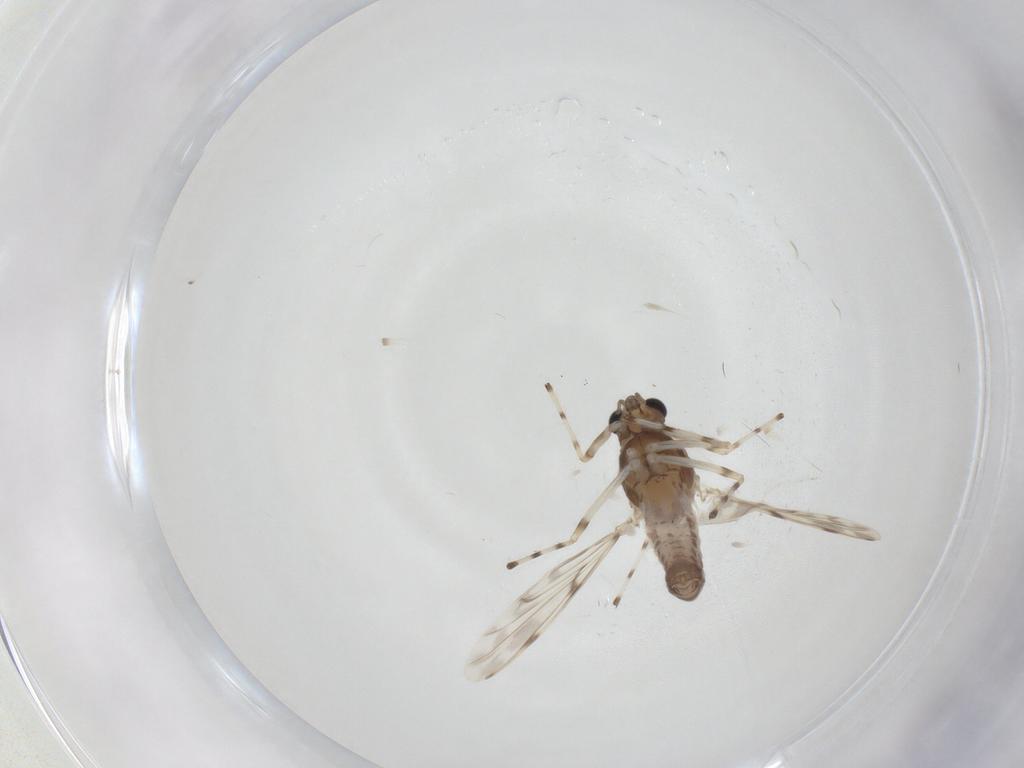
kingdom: Animalia
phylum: Arthropoda
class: Insecta
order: Diptera
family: Chironomidae
